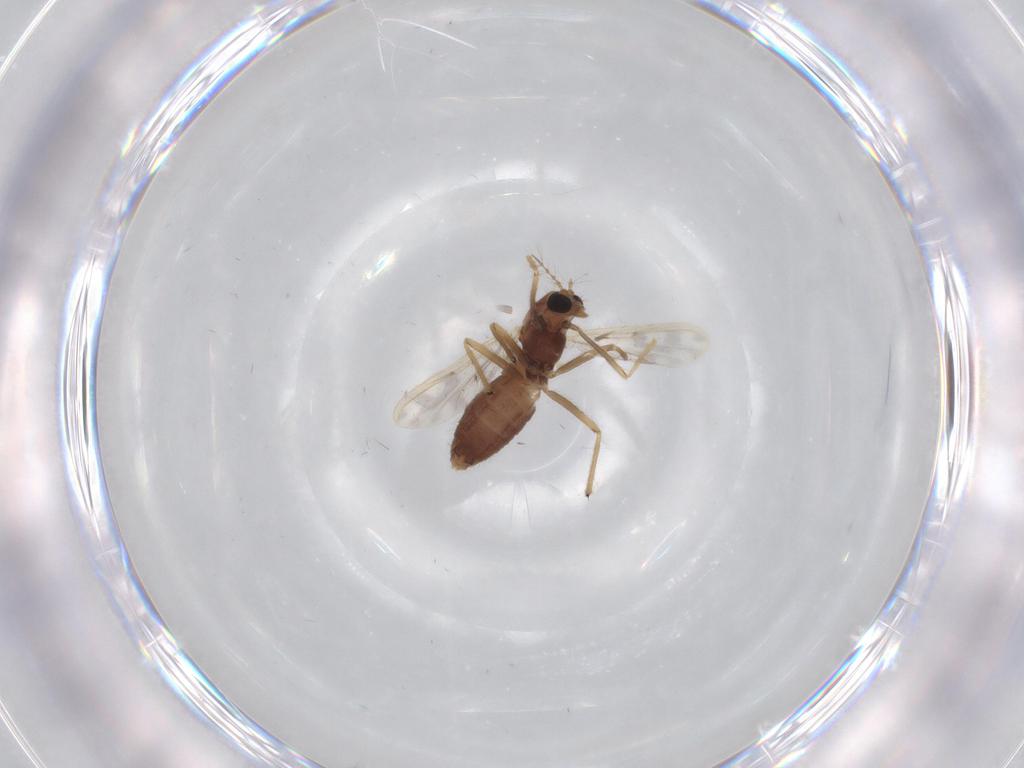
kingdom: Animalia
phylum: Arthropoda
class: Insecta
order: Diptera
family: Chironomidae
